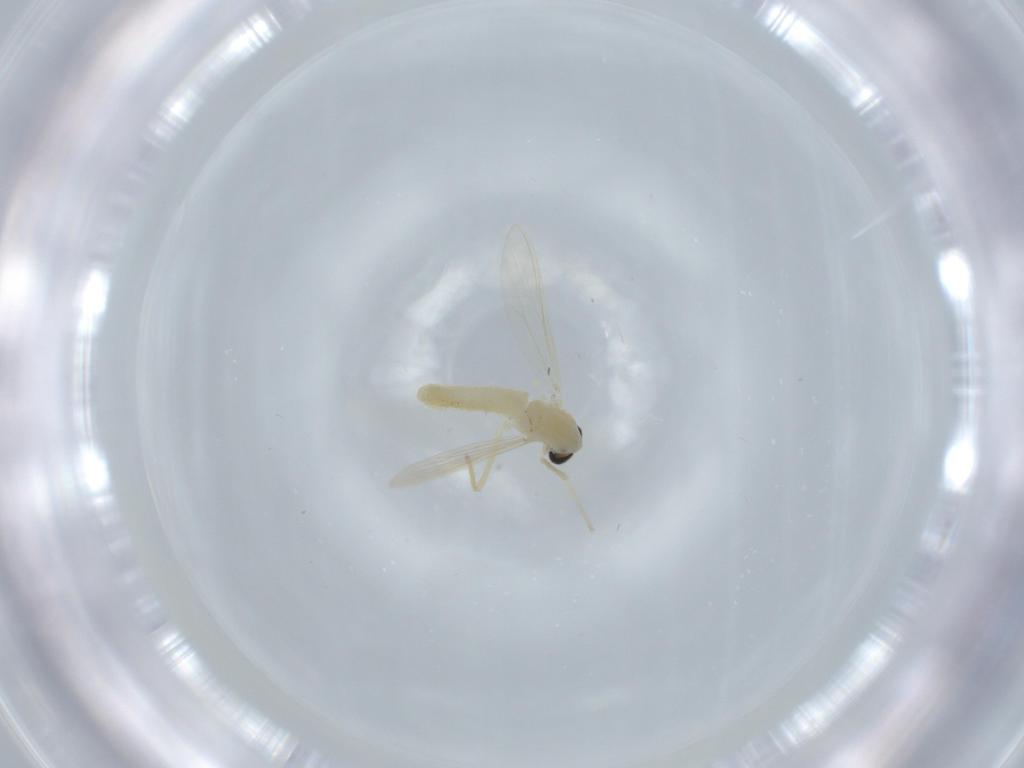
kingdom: Animalia
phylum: Arthropoda
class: Insecta
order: Diptera
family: Chironomidae
